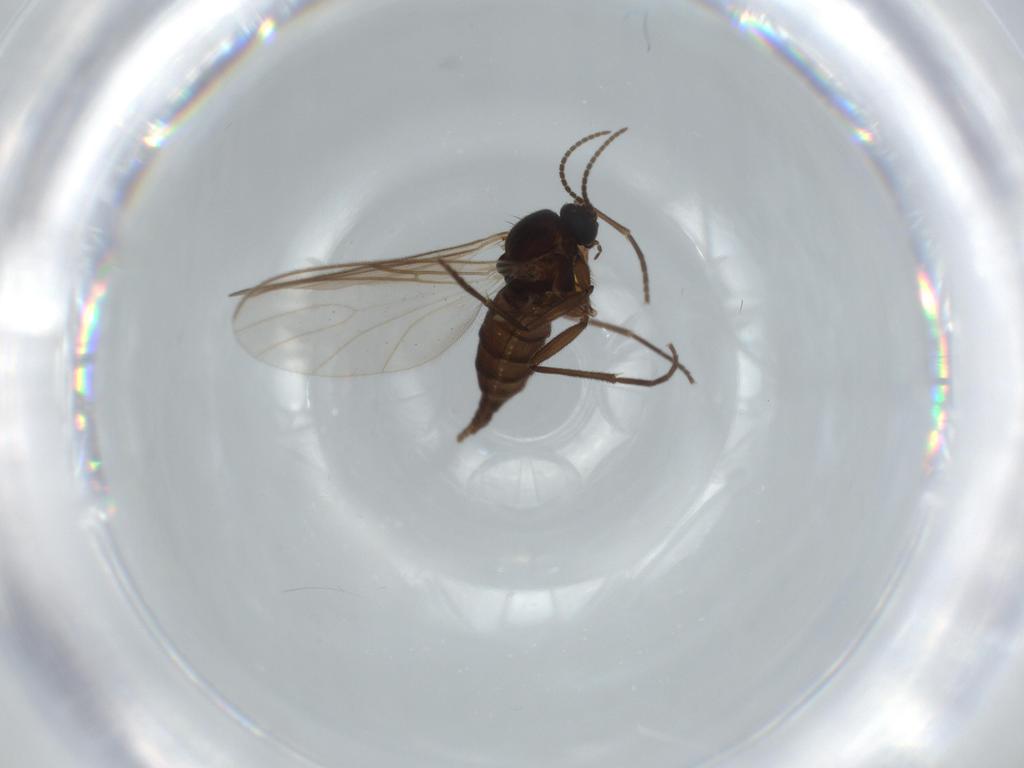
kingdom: Animalia
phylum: Arthropoda
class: Insecta
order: Diptera
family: Sciaridae
